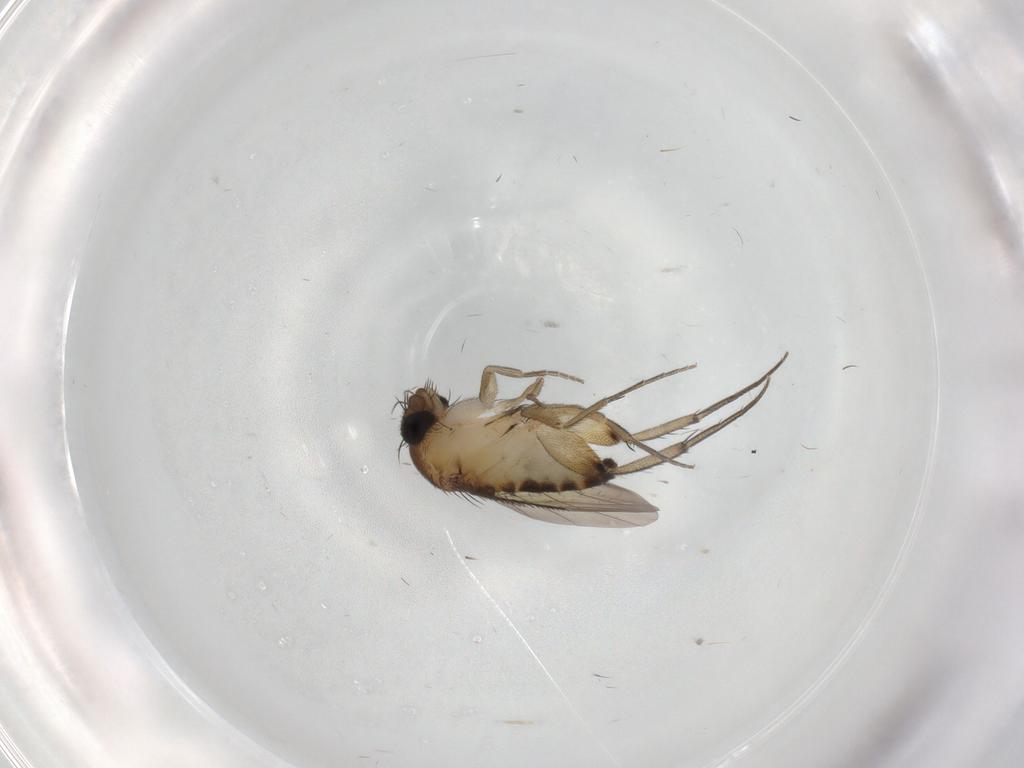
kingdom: Animalia
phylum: Arthropoda
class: Insecta
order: Diptera
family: Phoridae
